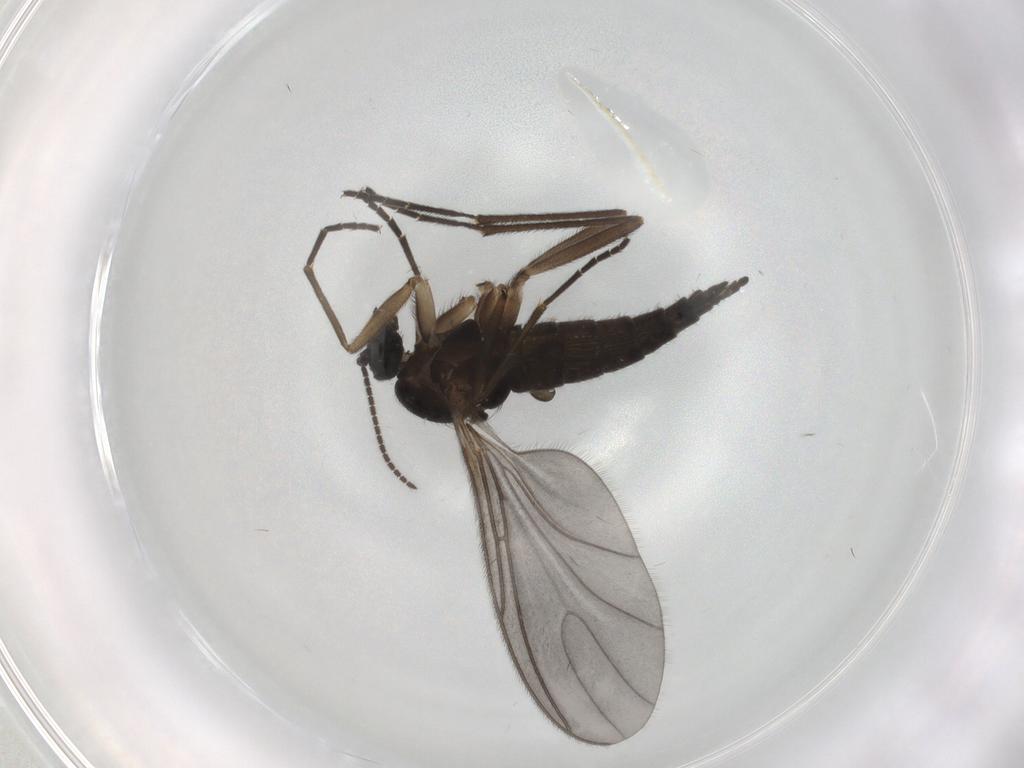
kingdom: Animalia
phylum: Arthropoda
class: Insecta
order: Diptera
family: Sciaridae
